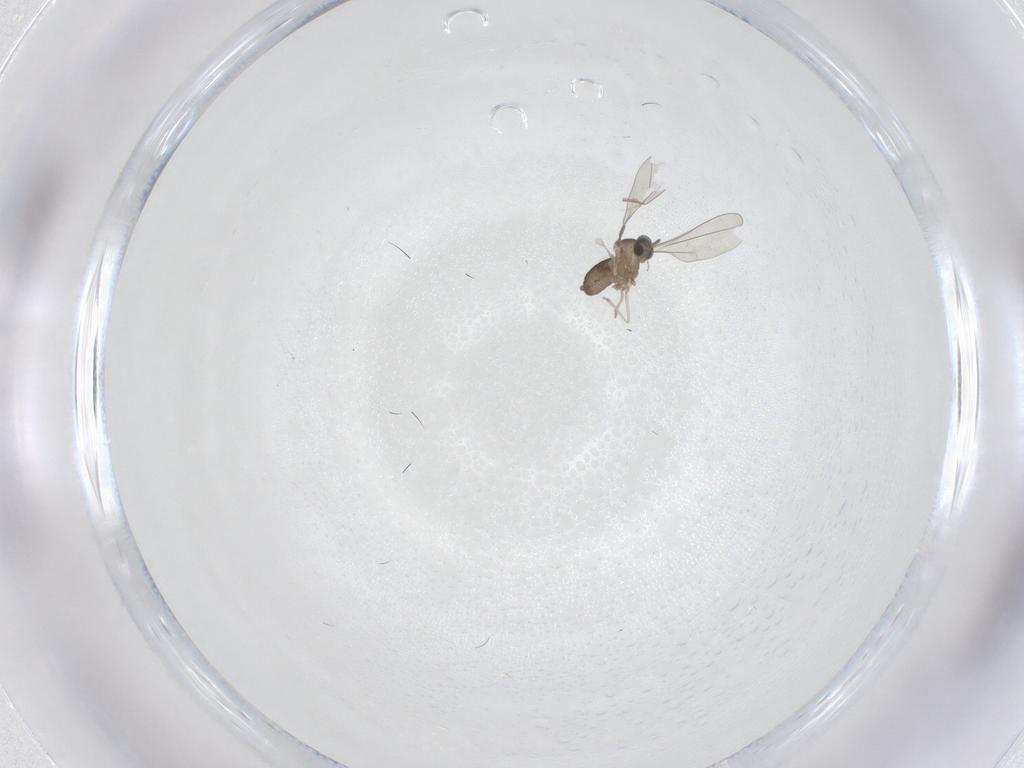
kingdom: Animalia
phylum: Arthropoda
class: Insecta
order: Diptera
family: Cecidomyiidae
